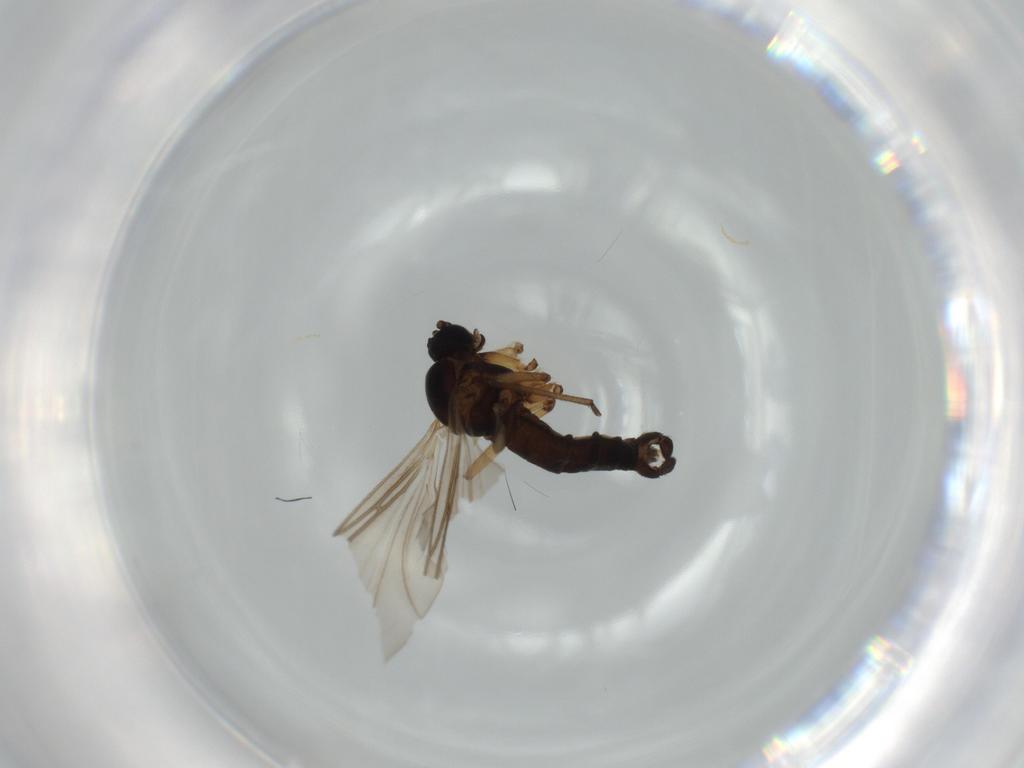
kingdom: Animalia
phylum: Arthropoda
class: Insecta
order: Diptera
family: Sciaridae
